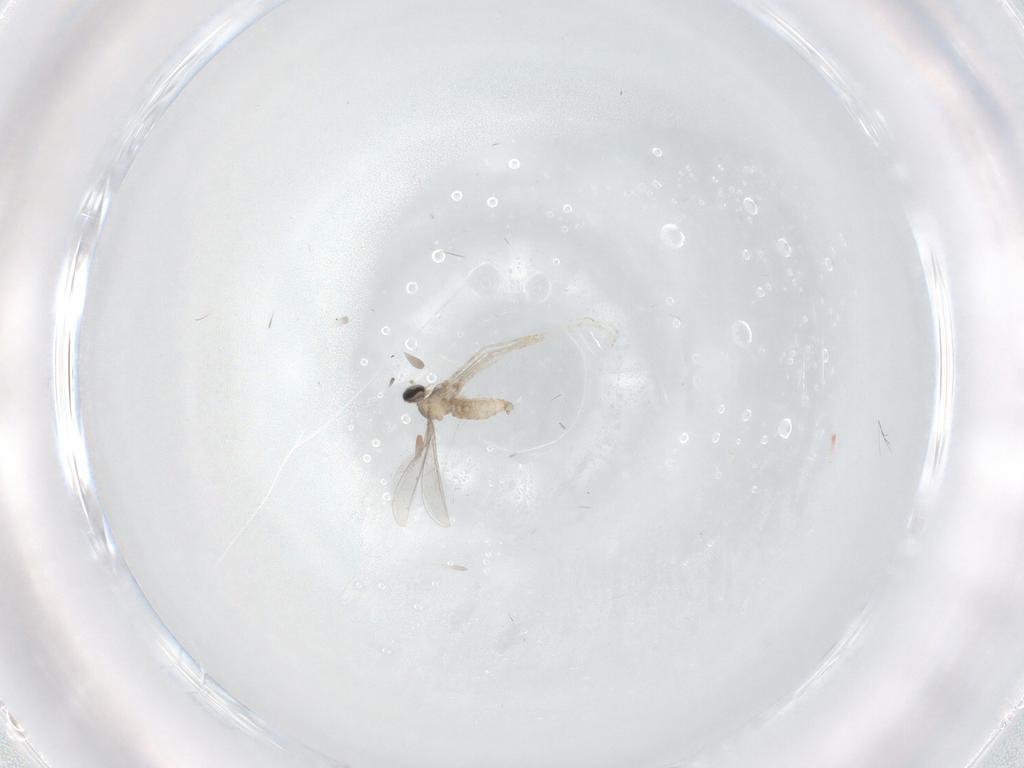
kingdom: Animalia
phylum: Arthropoda
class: Insecta
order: Diptera
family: Cecidomyiidae
